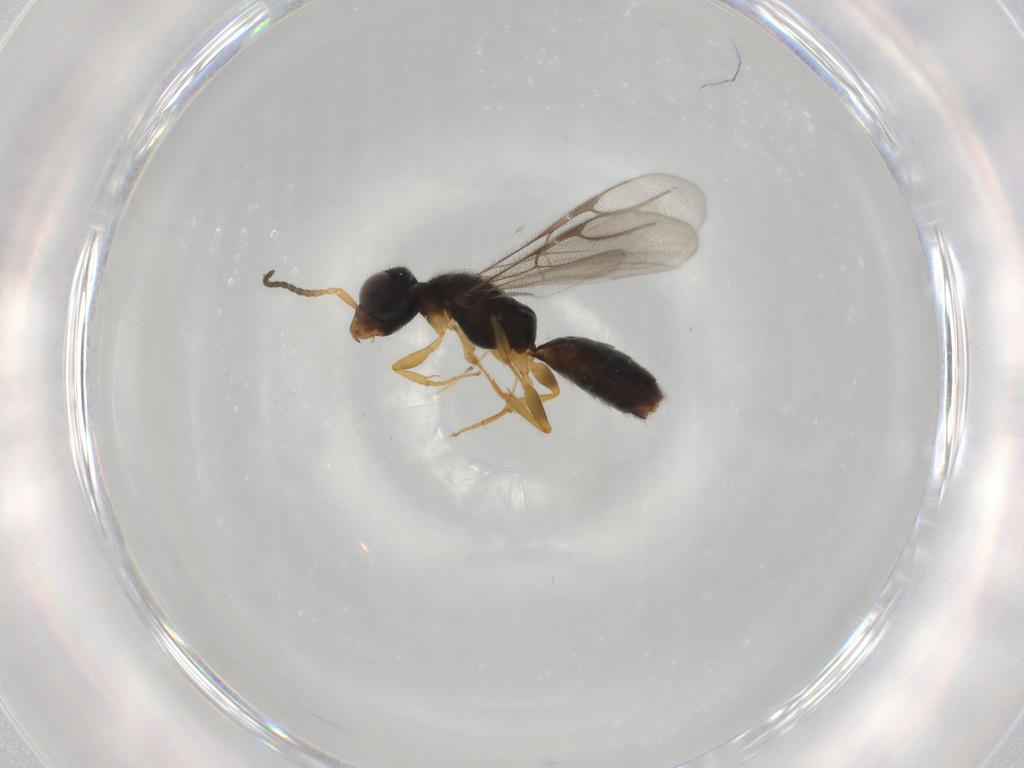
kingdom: Animalia
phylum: Arthropoda
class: Insecta
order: Hymenoptera
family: Bethylidae
